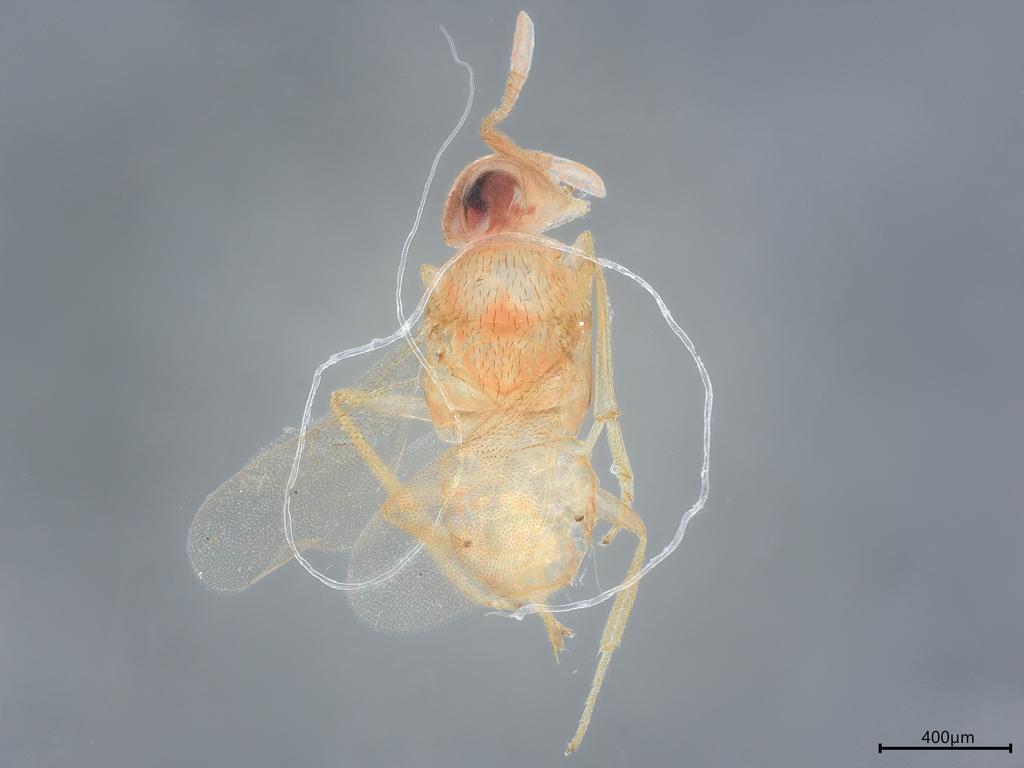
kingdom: Animalia
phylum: Arthropoda
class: Insecta
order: Hymenoptera
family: Encyrtidae
